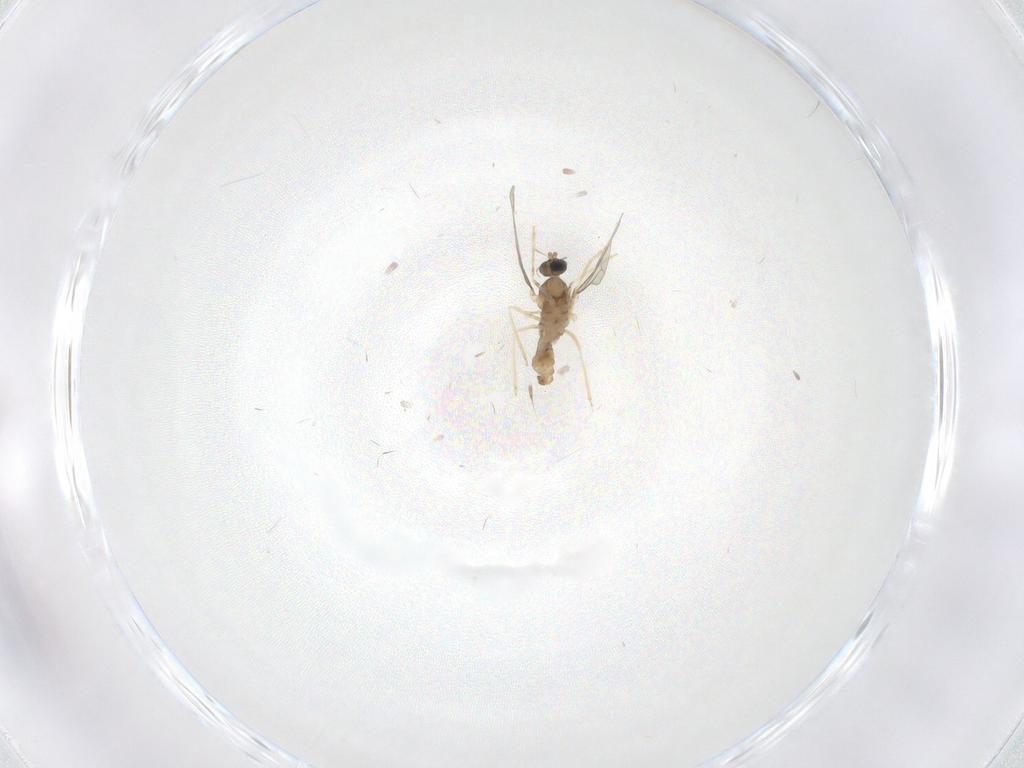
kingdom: Animalia
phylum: Arthropoda
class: Insecta
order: Diptera
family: Cecidomyiidae
